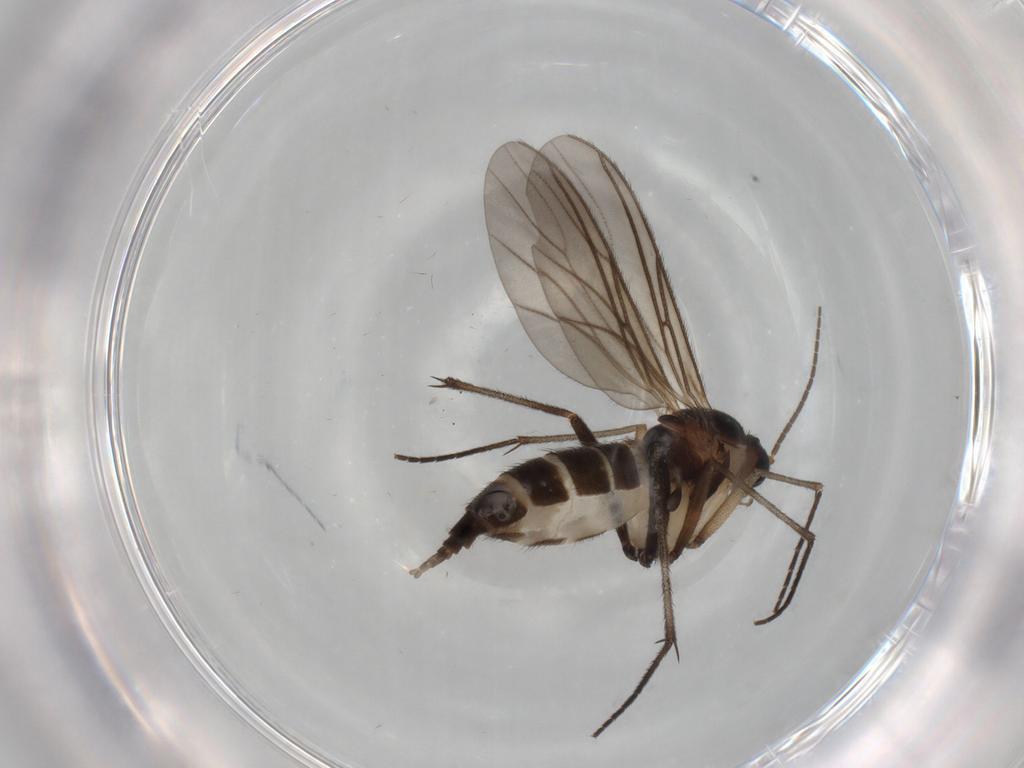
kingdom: Animalia
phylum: Arthropoda
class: Insecta
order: Diptera
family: Sciaridae
